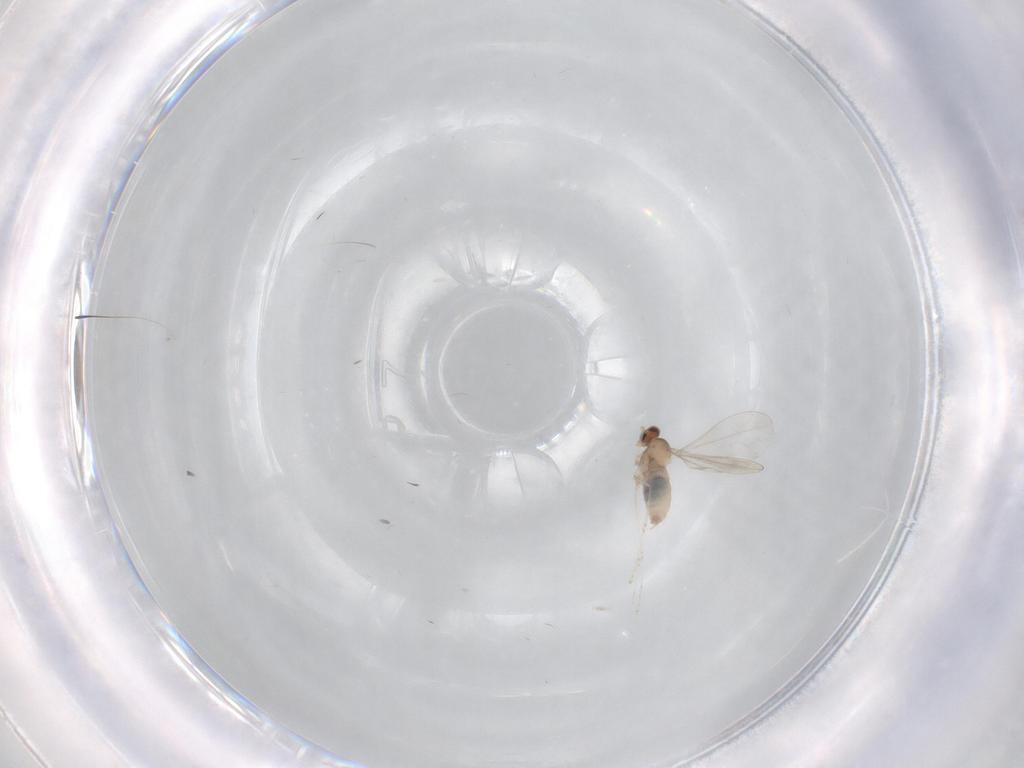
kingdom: Animalia
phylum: Arthropoda
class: Insecta
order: Diptera
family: Cecidomyiidae
